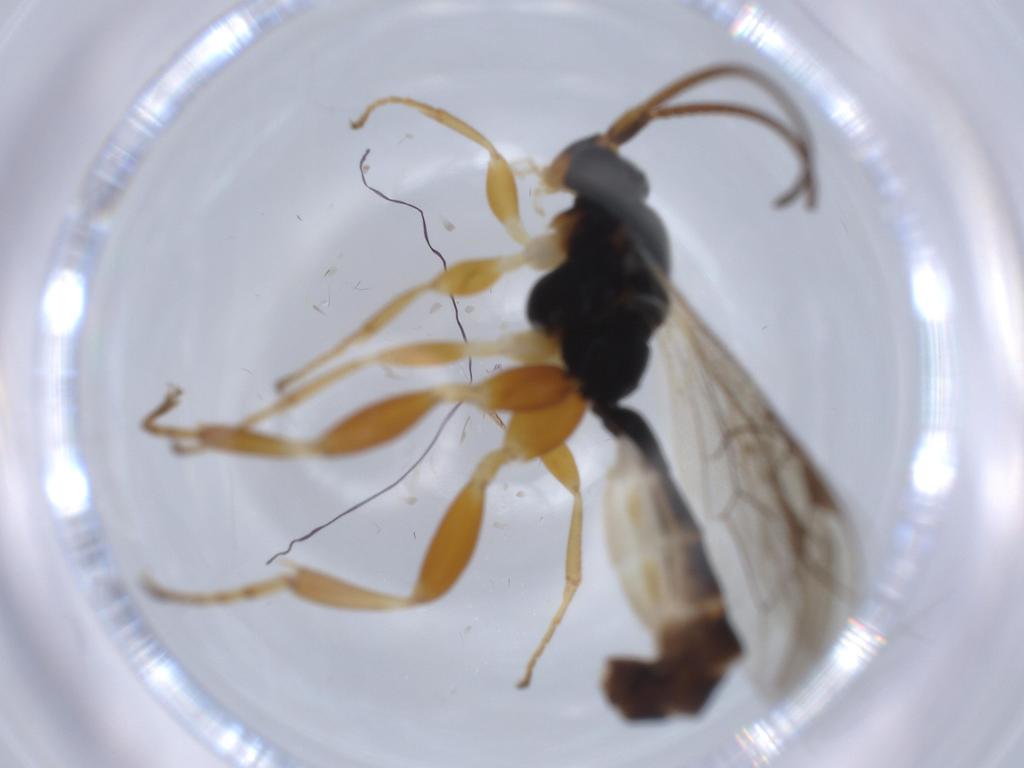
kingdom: Animalia
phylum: Arthropoda
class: Insecta
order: Hymenoptera
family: Ichneumonidae
